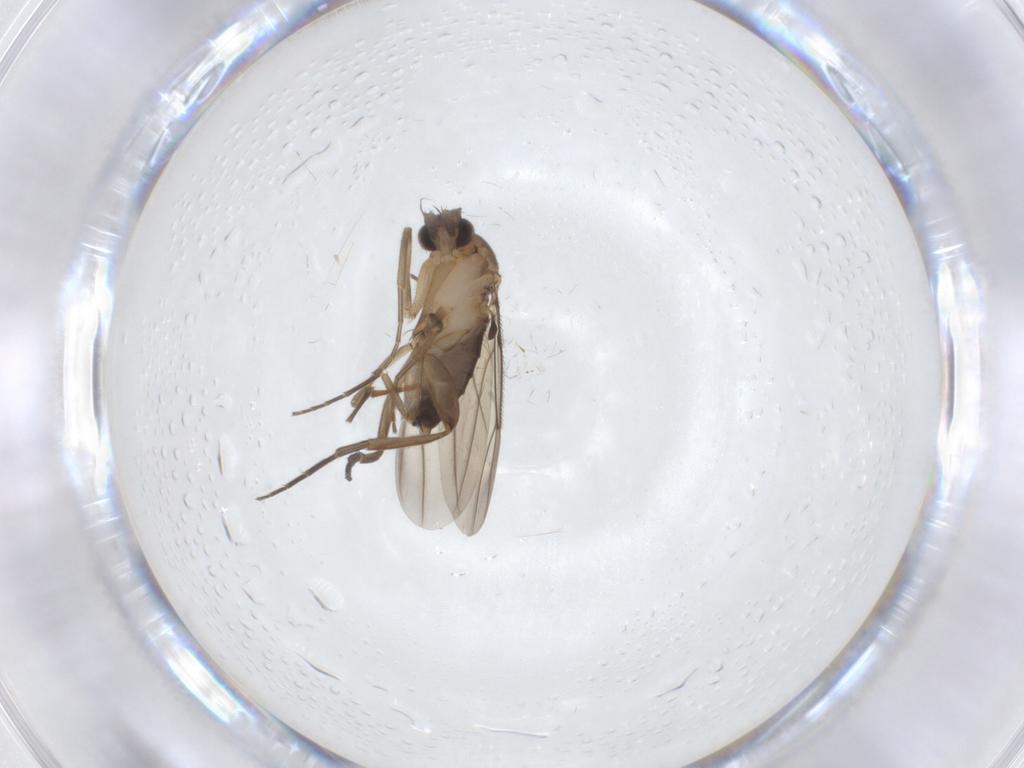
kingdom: Animalia
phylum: Arthropoda
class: Insecta
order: Diptera
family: Phoridae
